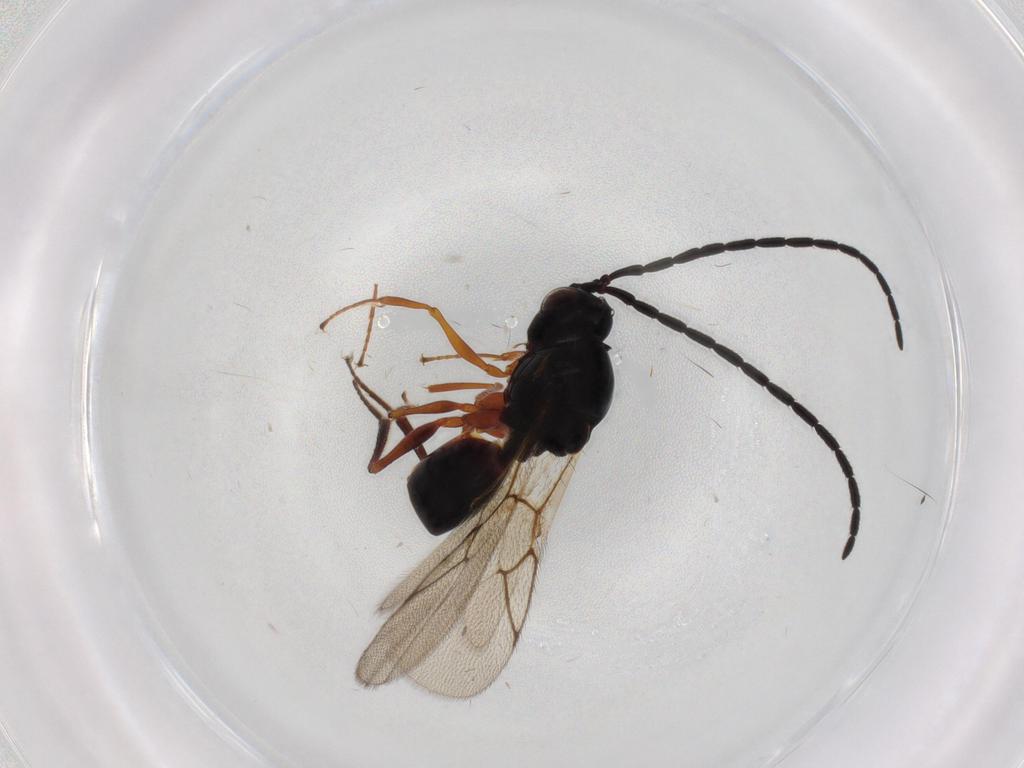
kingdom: Animalia
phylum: Arthropoda
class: Insecta
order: Hymenoptera
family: Figitidae
